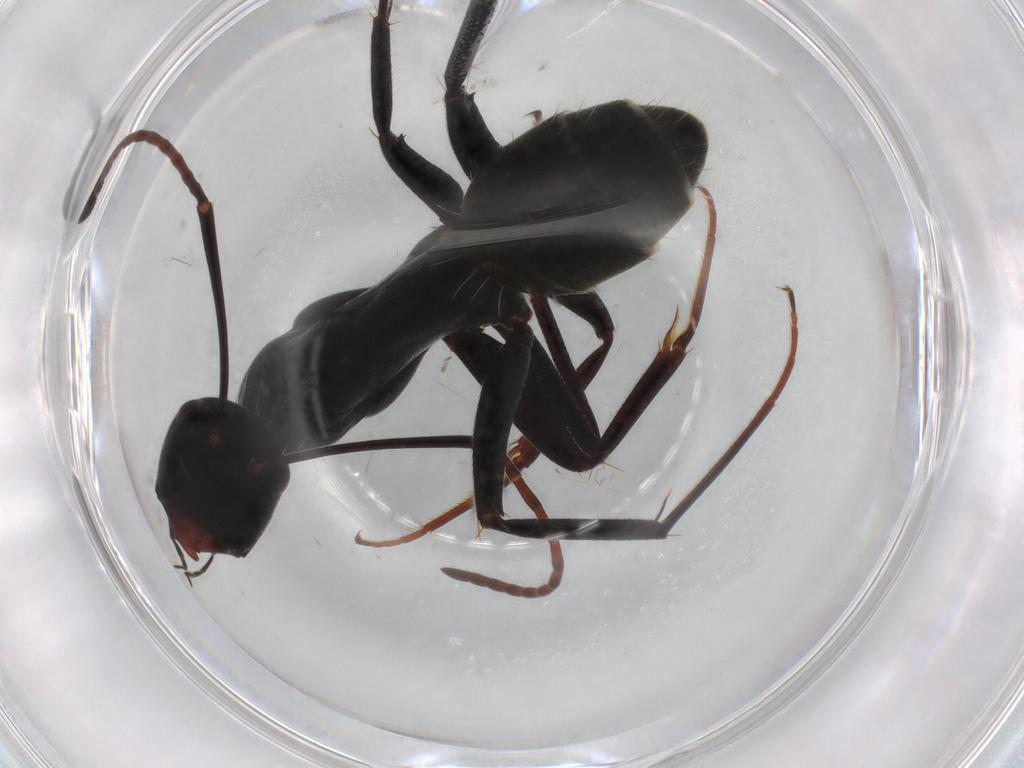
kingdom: Animalia
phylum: Arthropoda
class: Insecta
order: Hymenoptera
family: Formicidae
